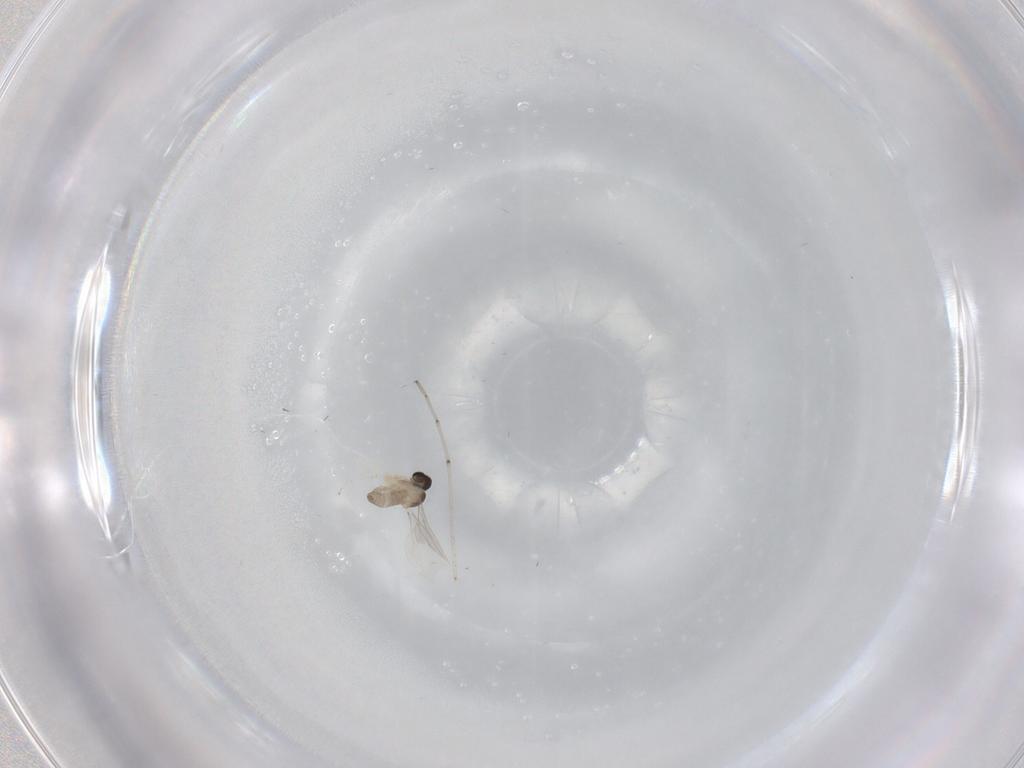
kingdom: Animalia
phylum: Arthropoda
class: Insecta
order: Diptera
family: Cecidomyiidae
